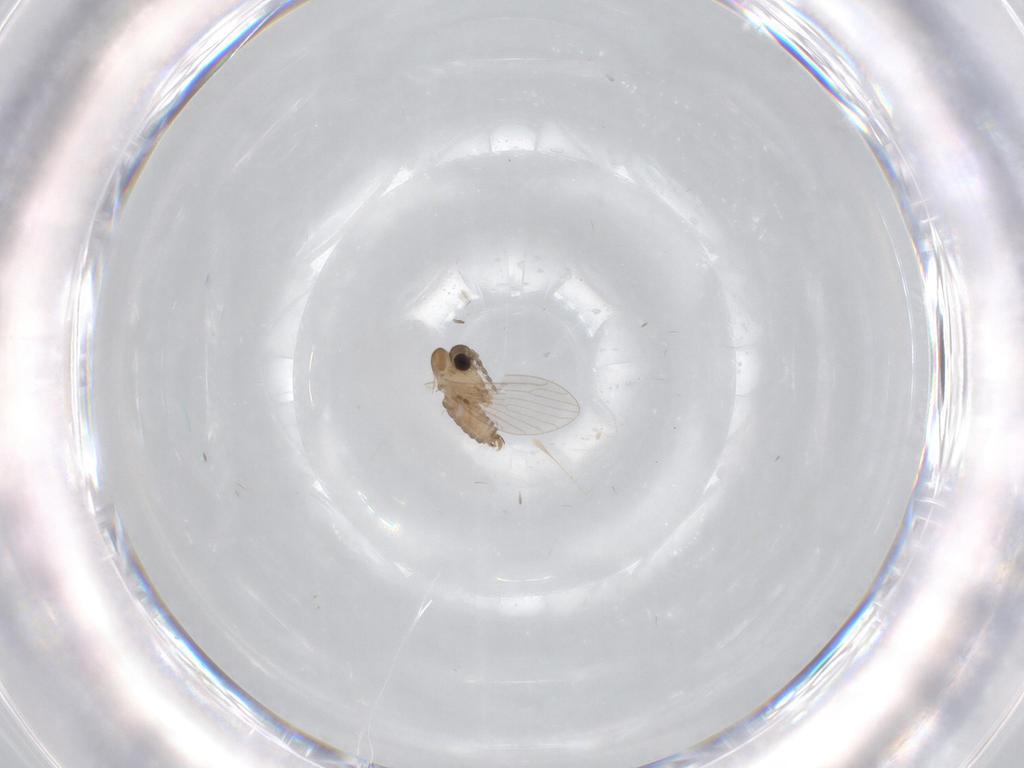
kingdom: Animalia
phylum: Arthropoda
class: Insecta
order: Diptera
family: Psychodidae
